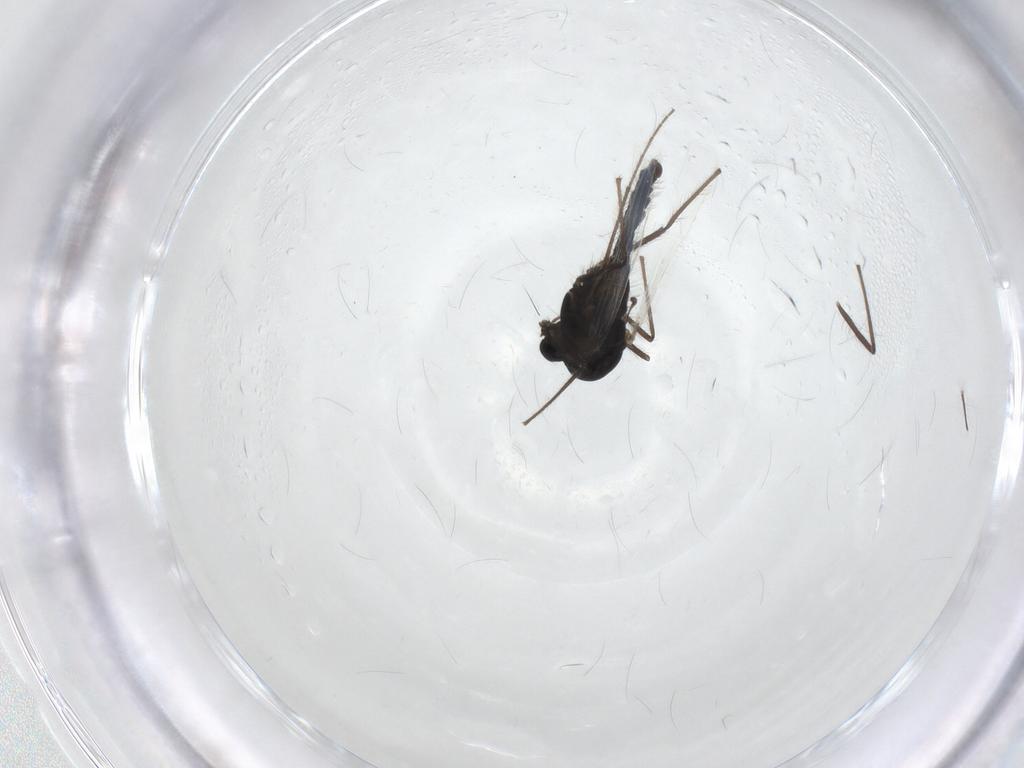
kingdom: Animalia
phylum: Arthropoda
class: Insecta
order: Diptera
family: Chironomidae
